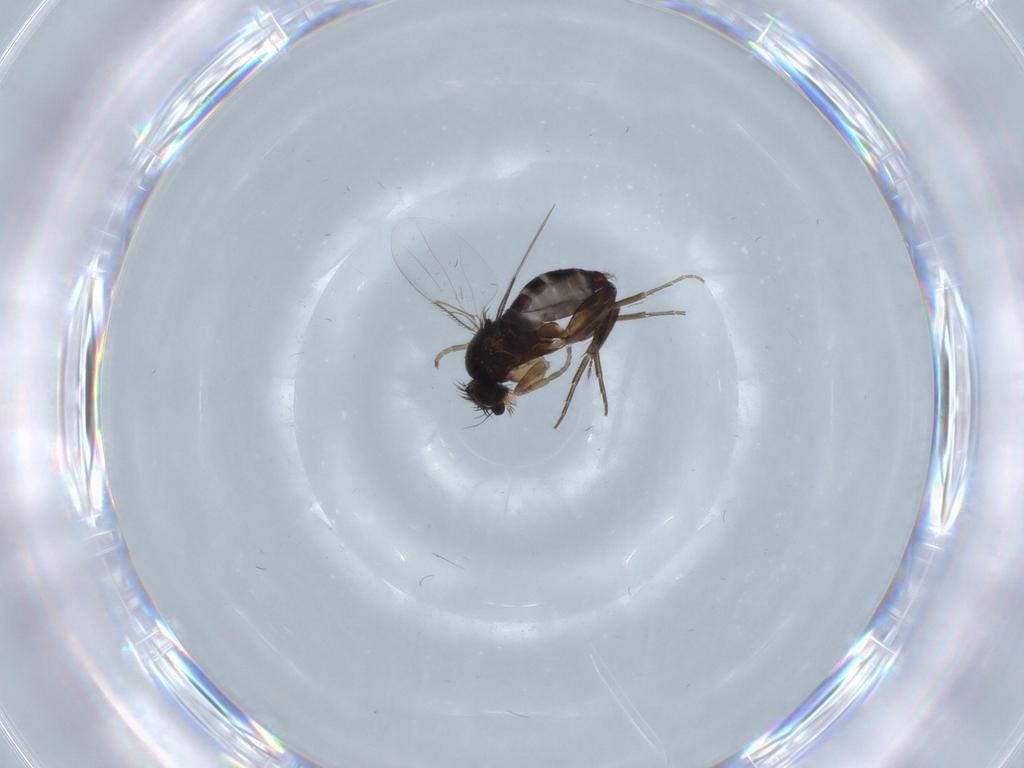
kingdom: Animalia
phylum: Arthropoda
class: Insecta
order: Diptera
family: Phoridae
